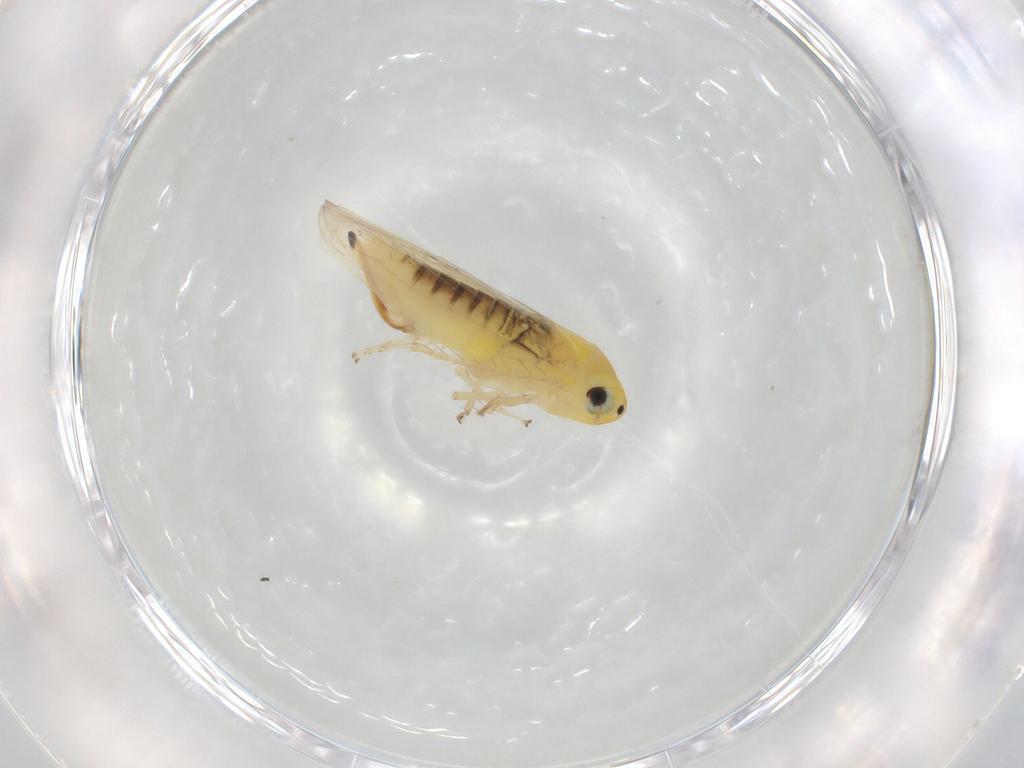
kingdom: Animalia
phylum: Arthropoda
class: Insecta
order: Hemiptera
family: Cicadellidae
